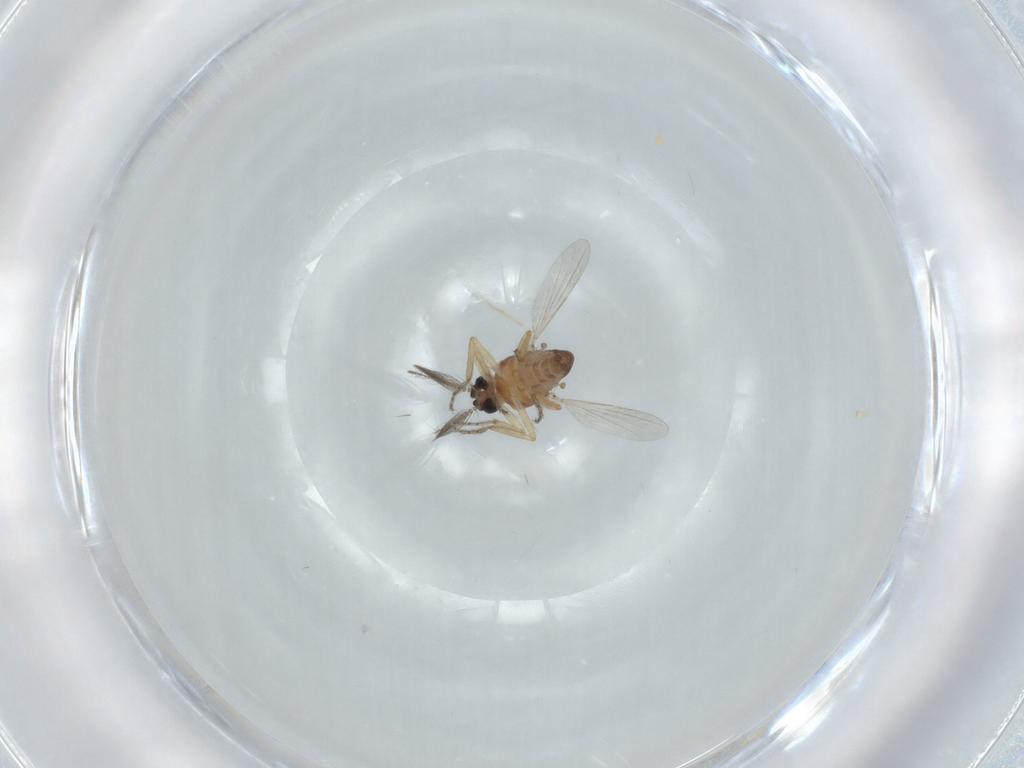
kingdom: Animalia
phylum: Arthropoda
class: Insecta
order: Diptera
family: Ceratopogonidae
